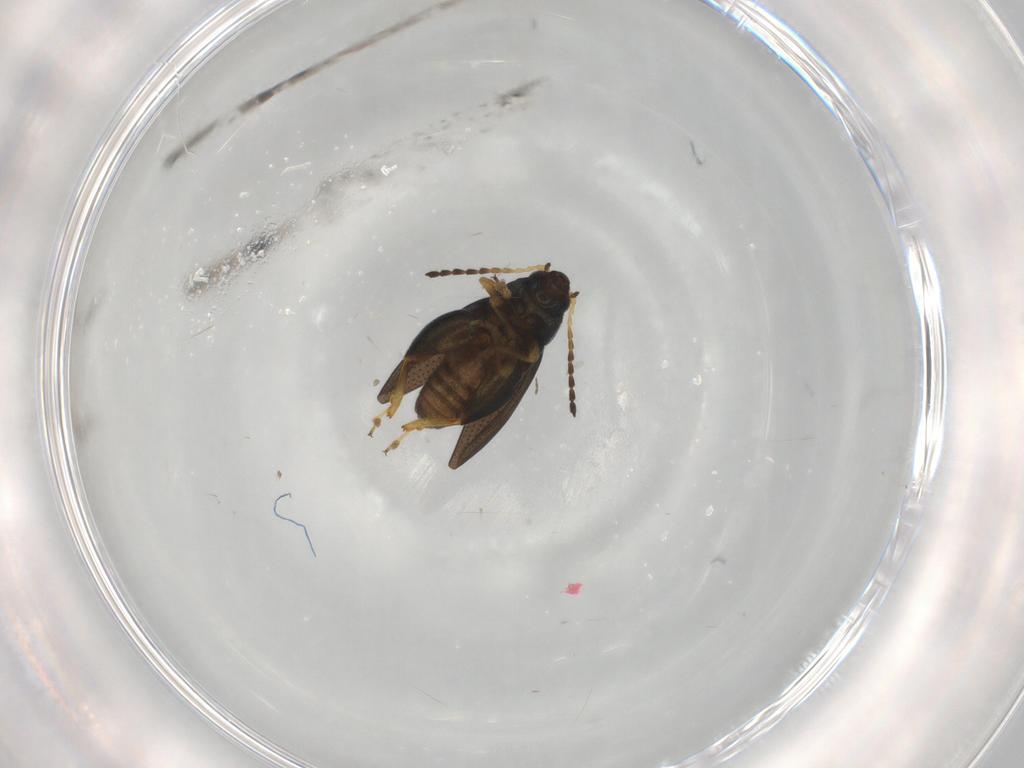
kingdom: Animalia
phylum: Arthropoda
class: Insecta
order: Coleoptera
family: Chrysomelidae
